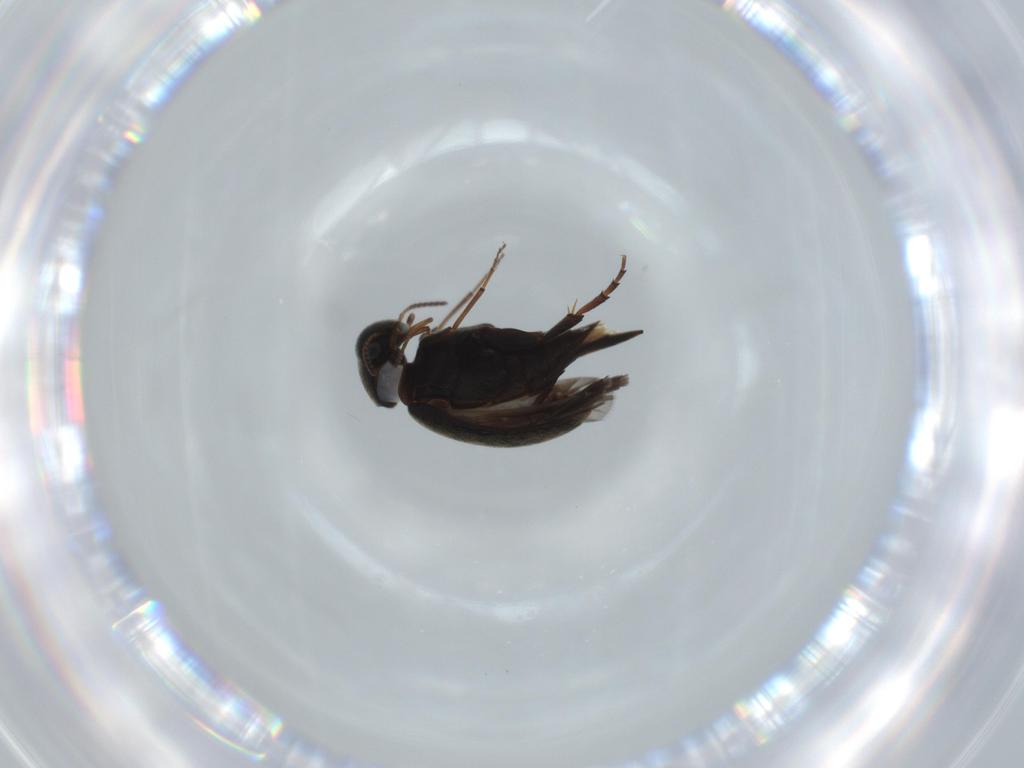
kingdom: Animalia
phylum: Arthropoda
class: Insecta
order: Coleoptera
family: Mordellidae
